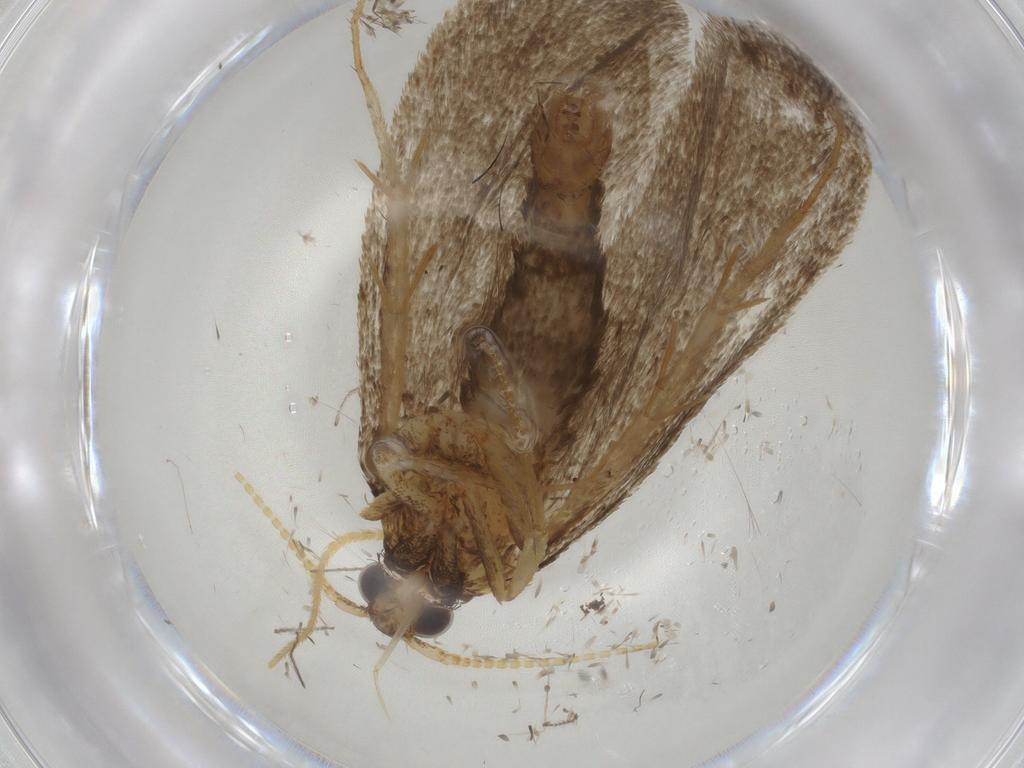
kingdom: Animalia
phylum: Arthropoda
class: Insecta
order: Lepidoptera
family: Lecithoceridae
